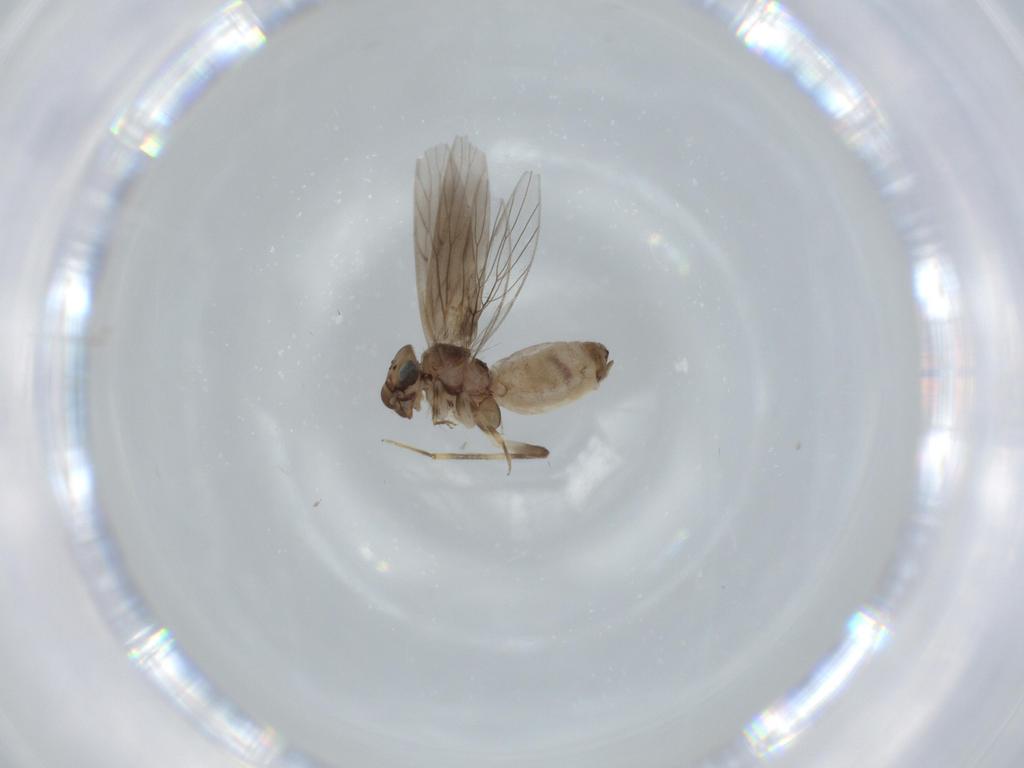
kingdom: Animalia
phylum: Arthropoda
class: Insecta
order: Psocodea
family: Lepidopsocidae
